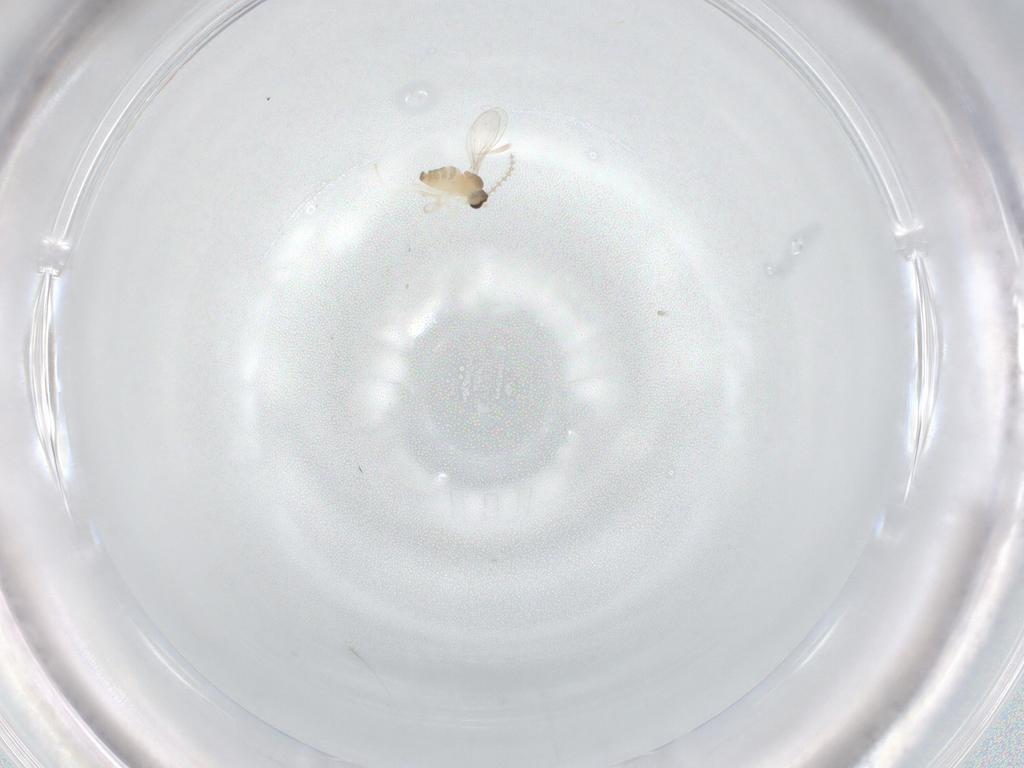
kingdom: Animalia
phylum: Arthropoda
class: Insecta
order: Diptera
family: Cecidomyiidae
